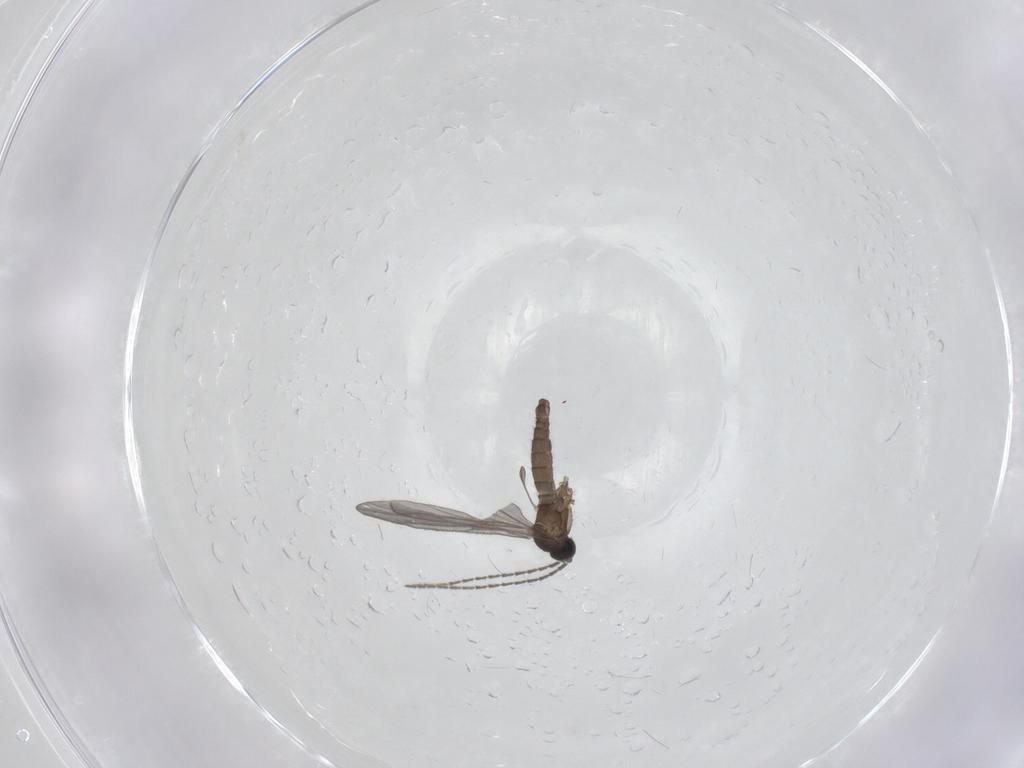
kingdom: Animalia
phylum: Arthropoda
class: Insecta
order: Diptera
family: Sciaridae
